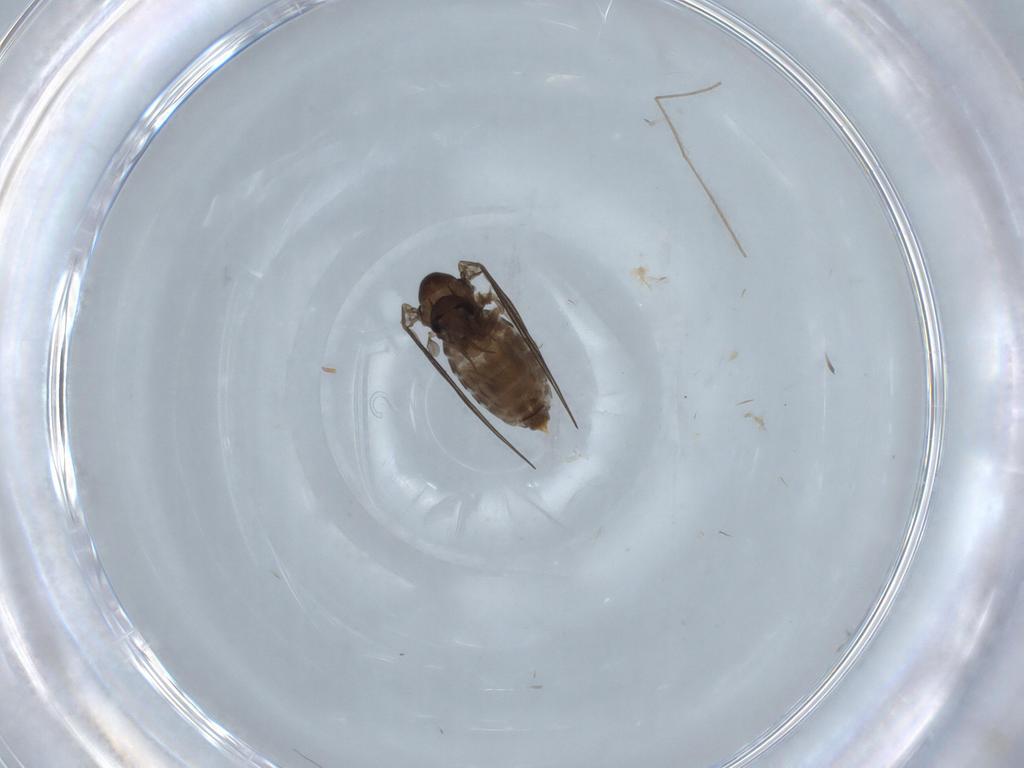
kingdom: Animalia
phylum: Arthropoda
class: Insecta
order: Diptera
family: Psychodidae
